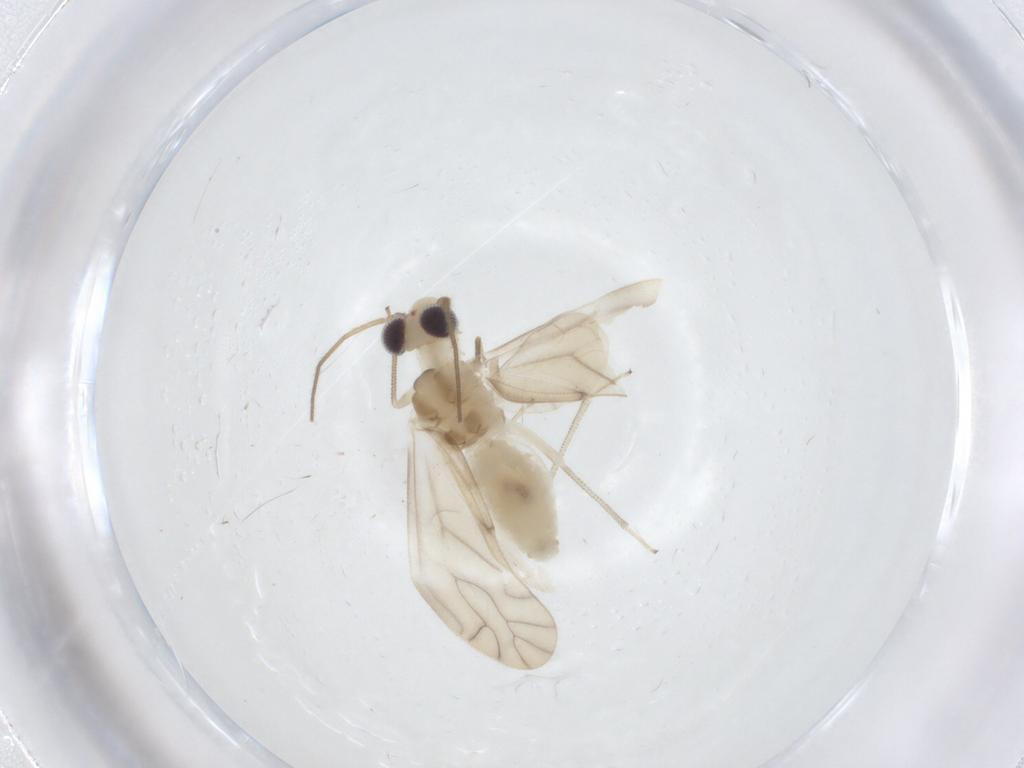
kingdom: Animalia
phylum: Arthropoda
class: Insecta
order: Psocodea
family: Caeciliusidae
